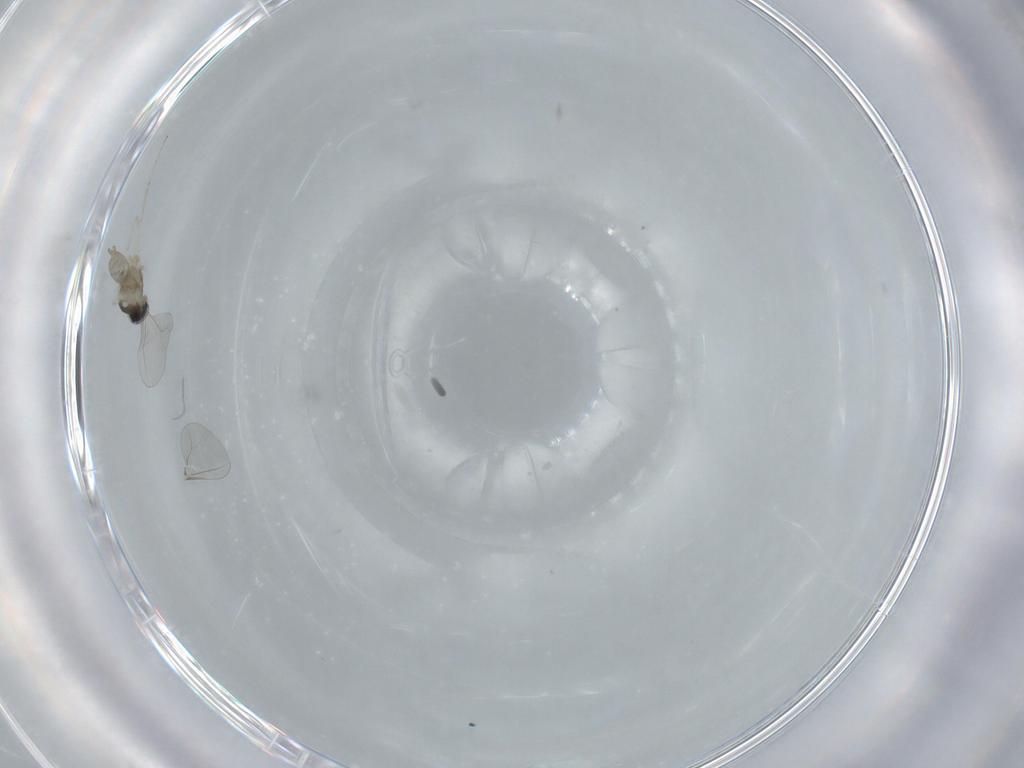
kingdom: Animalia
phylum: Arthropoda
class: Insecta
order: Diptera
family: Cecidomyiidae
